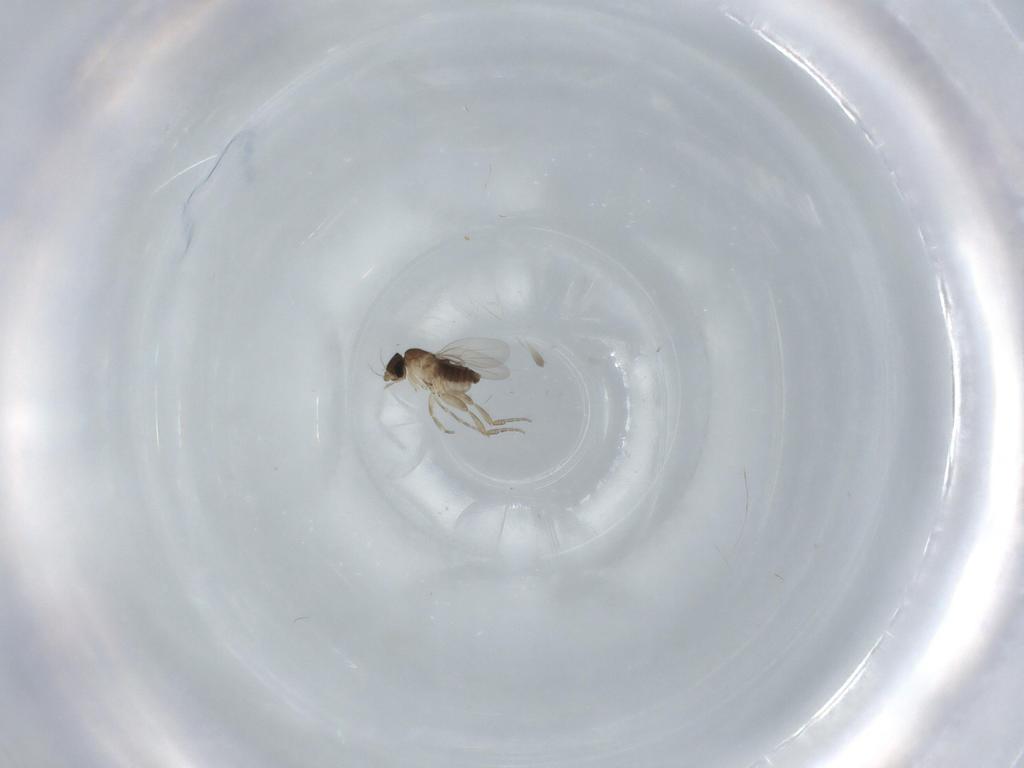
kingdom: Animalia
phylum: Arthropoda
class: Insecta
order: Diptera
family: Phoridae
